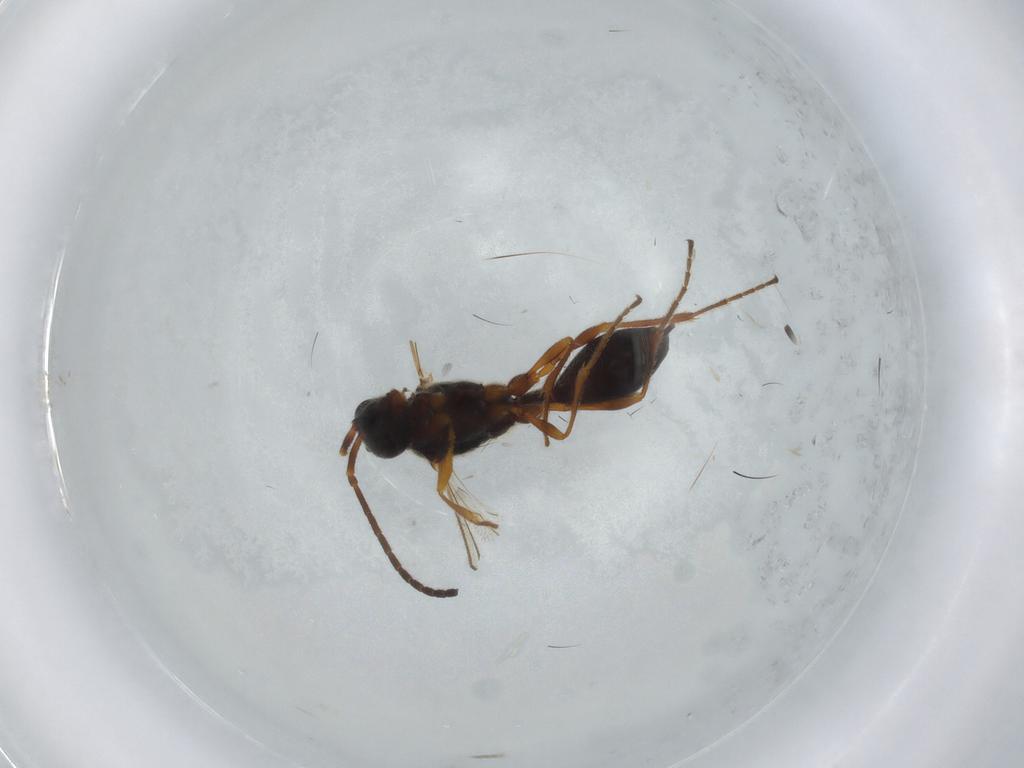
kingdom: Animalia
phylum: Arthropoda
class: Insecta
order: Hymenoptera
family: Diapriidae
